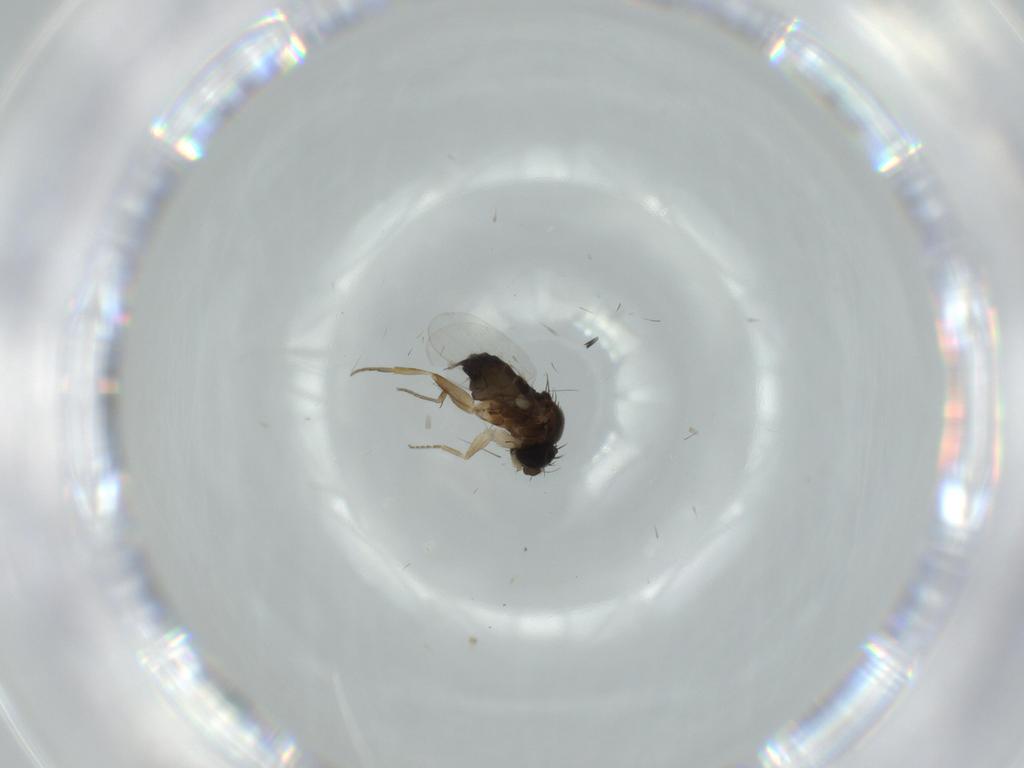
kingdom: Animalia
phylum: Arthropoda
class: Insecta
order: Diptera
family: Phoridae
